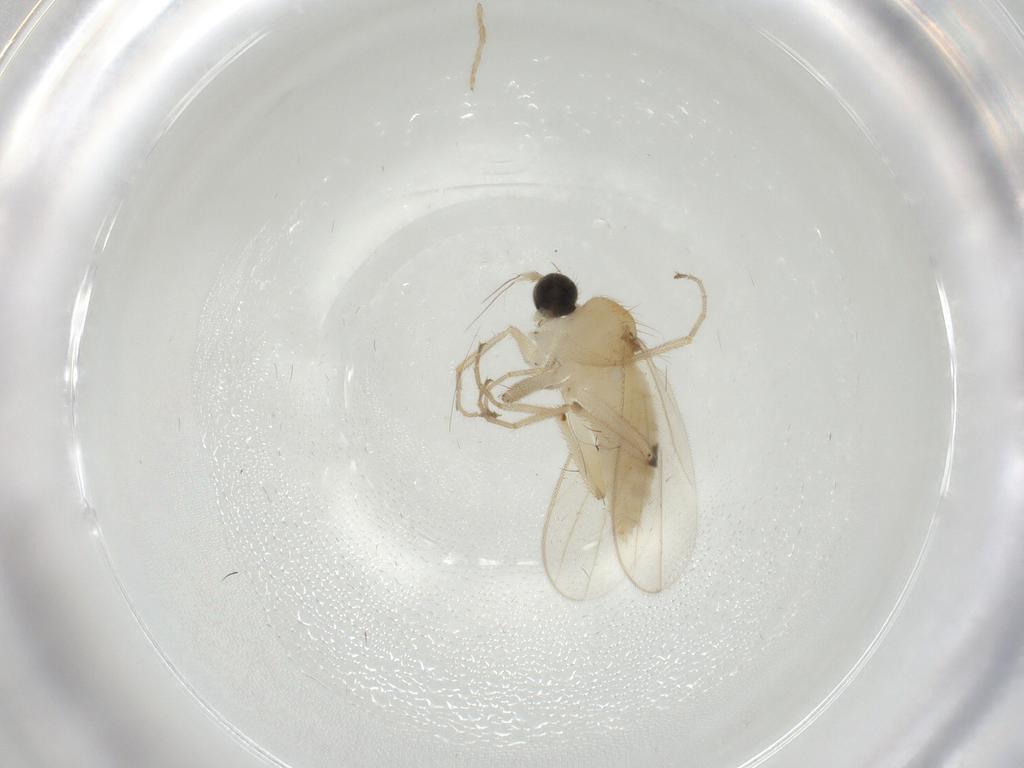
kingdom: Animalia
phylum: Arthropoda
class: Insecta
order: Diptera
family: Hybotidae
